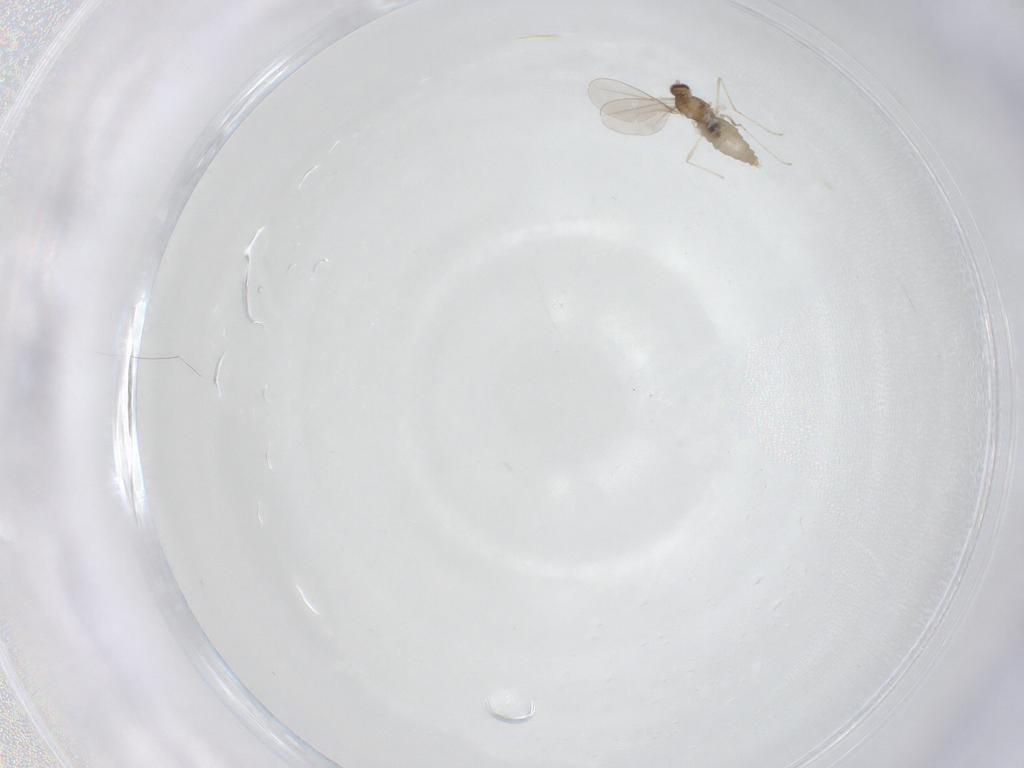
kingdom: Animalia
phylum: Arthropoda
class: Insecta
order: Diptera
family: Cecidomyiidae
